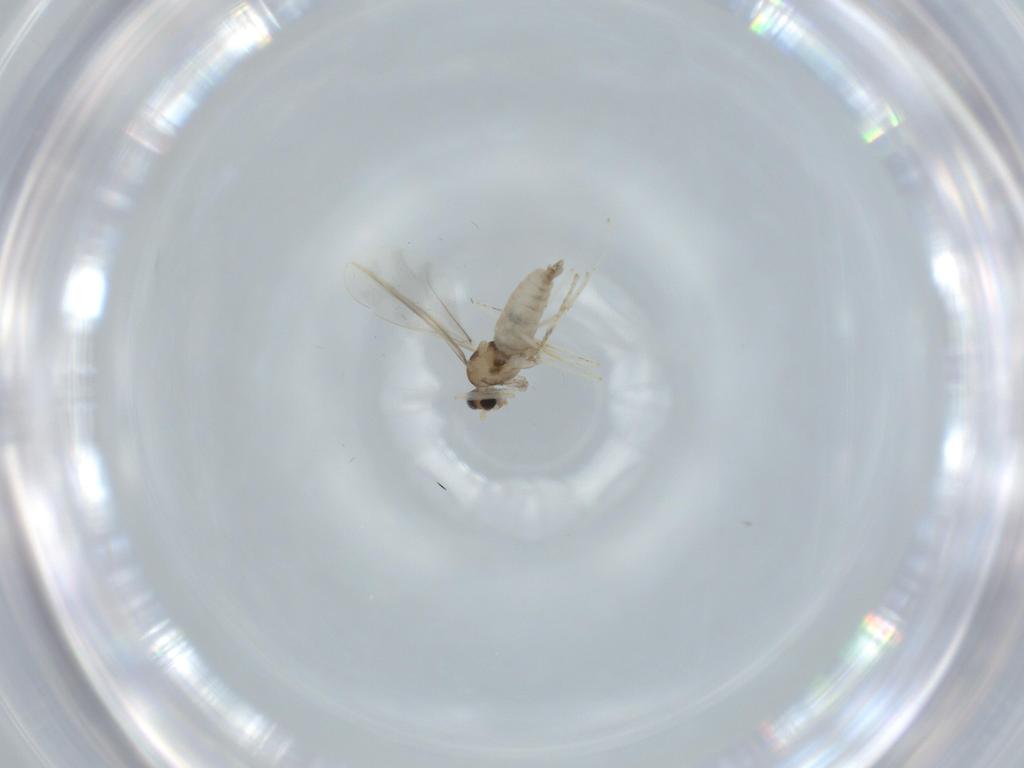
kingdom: Animalia
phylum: Arthropoda
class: Insecta
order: Diptera
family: Cecidomyiidae
